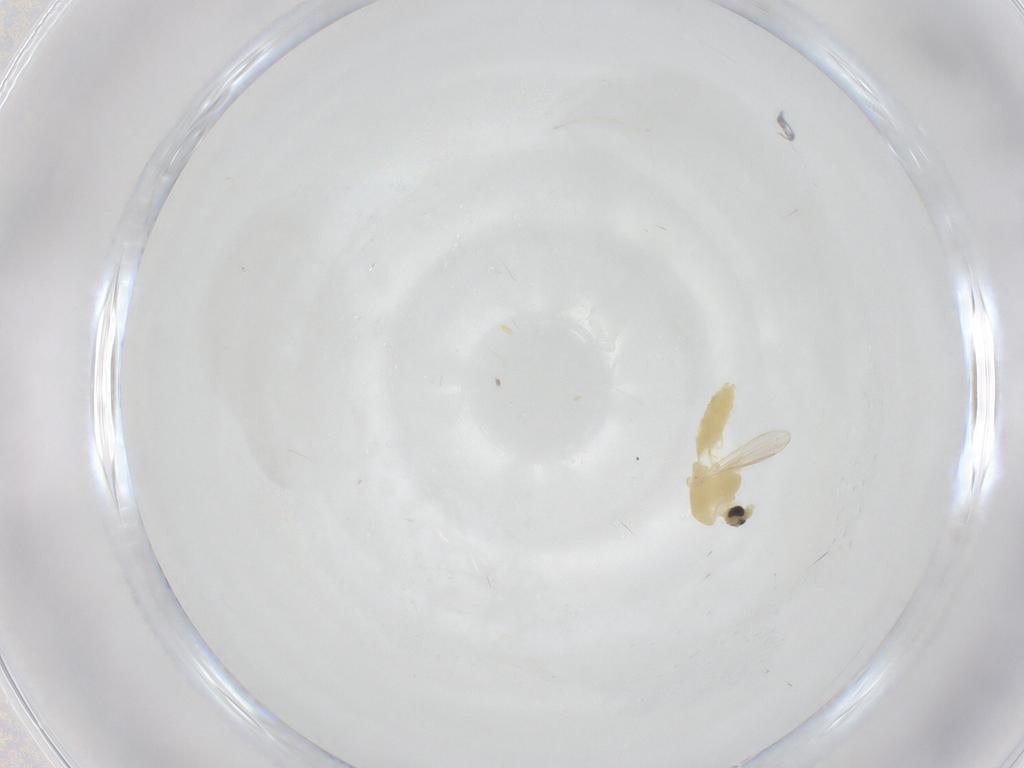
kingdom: Animalia
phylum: Arthropoda
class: Insecta
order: Diptera
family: Chironomidae
